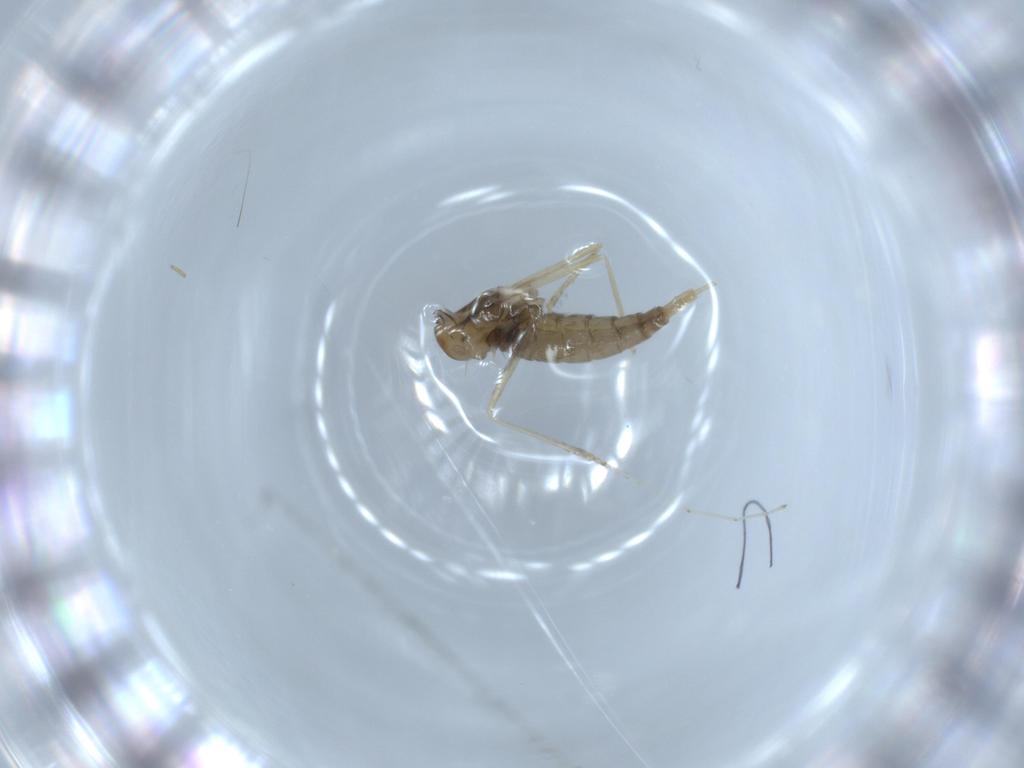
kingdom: Animalia
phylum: Arthropoda
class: Insecta
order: Diptera
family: Cecidomyiidae
